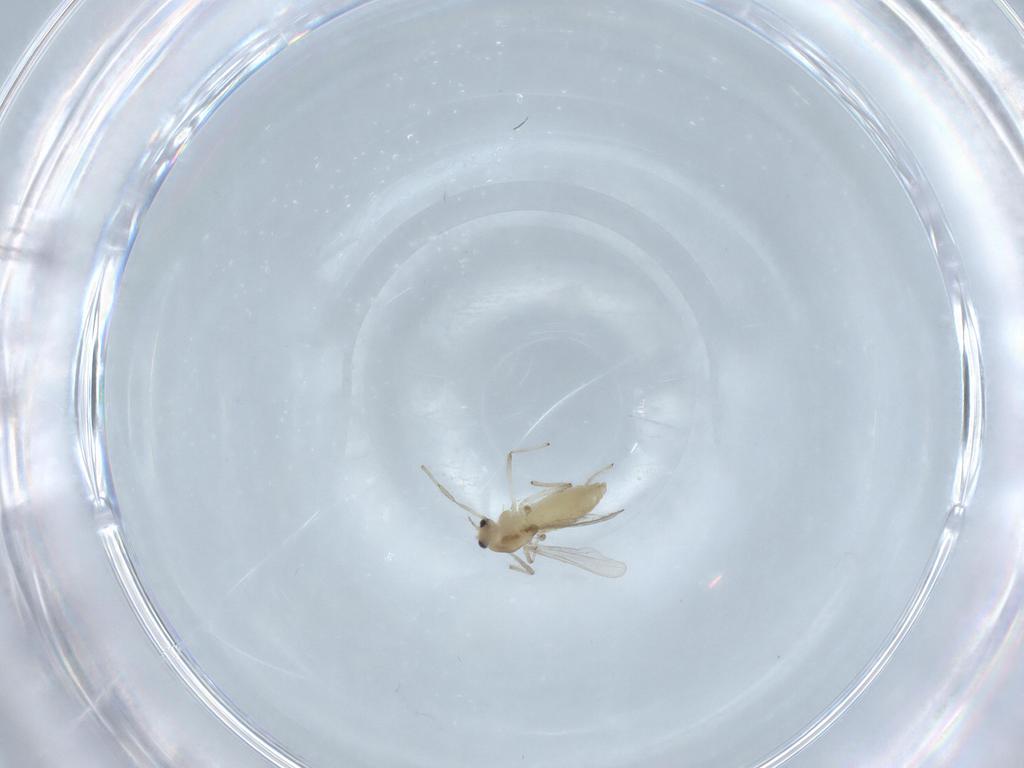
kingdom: Animalia
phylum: Arthropoda
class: Insecta
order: Diptera
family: Chironomidae
